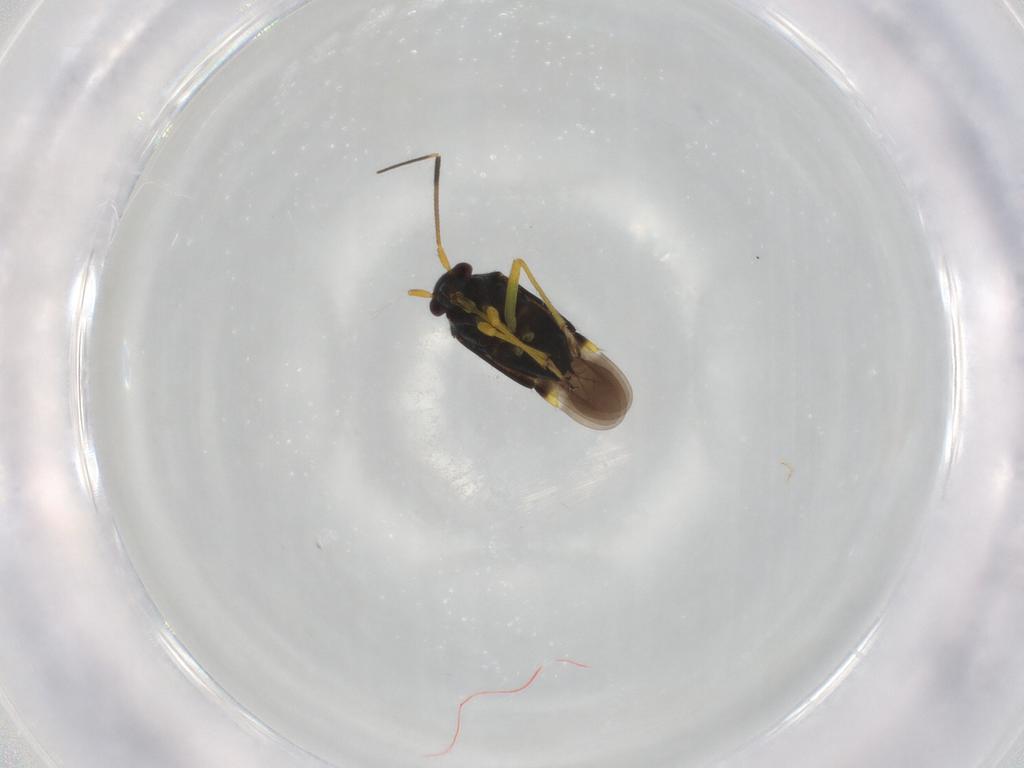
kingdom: Animalia
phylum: Arthropoda
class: Insecta
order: Hemiptera
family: Miridae
